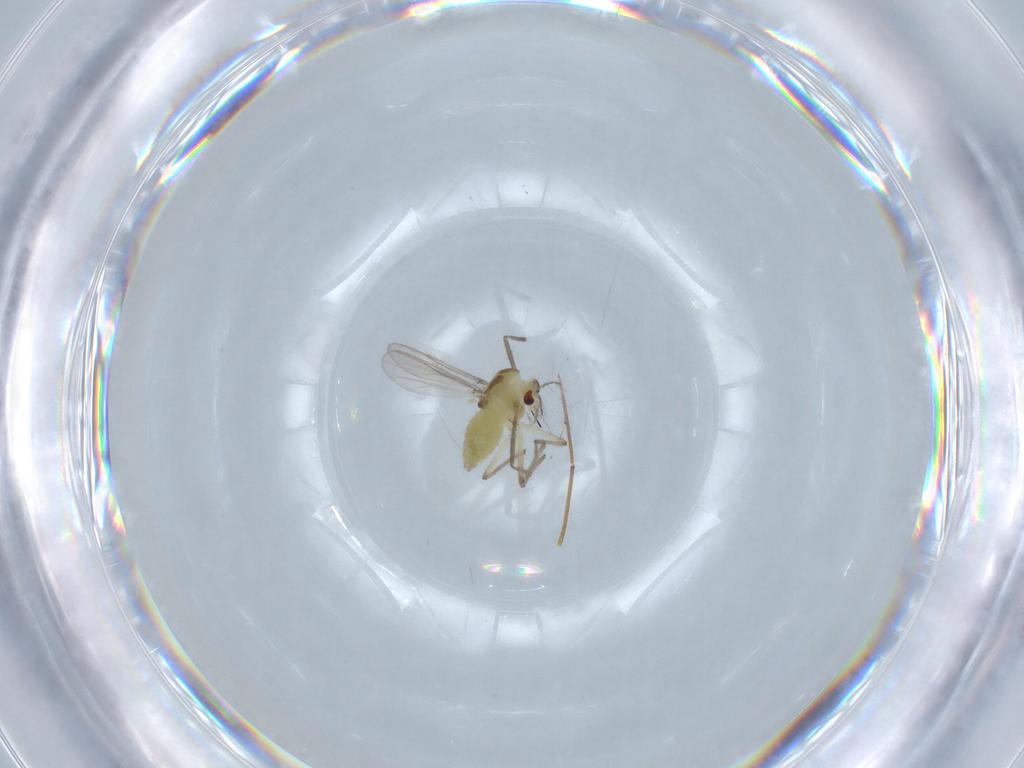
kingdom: Animalia
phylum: Arthropoda
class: Insecta
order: Diptera
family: Chironomidae
